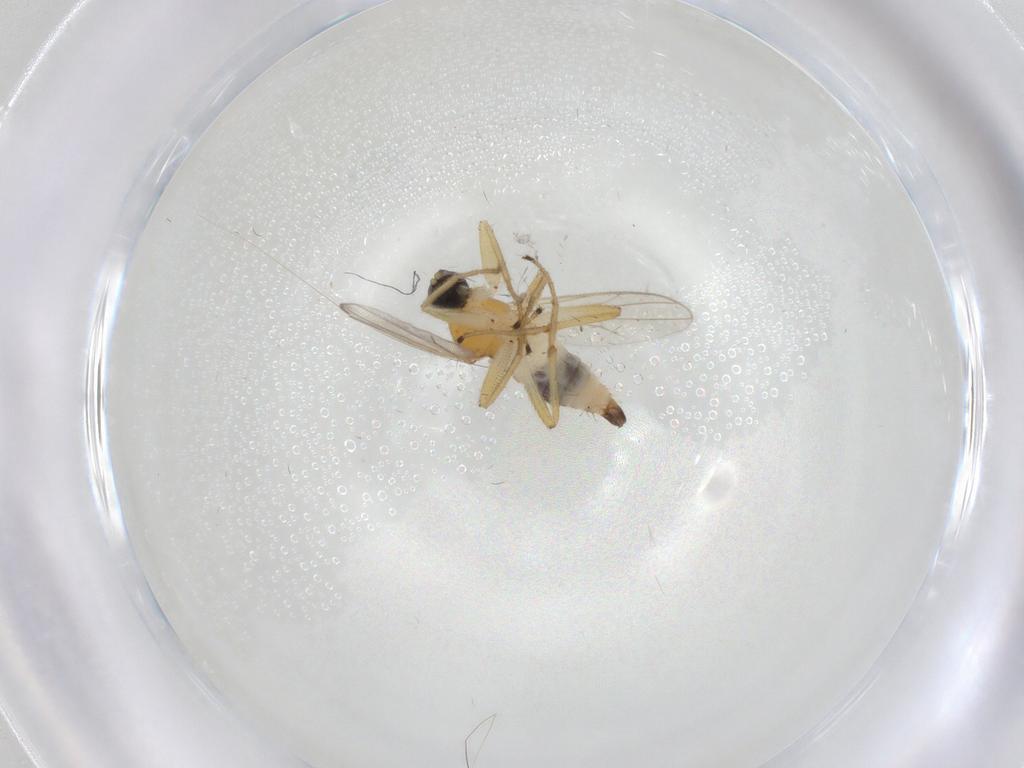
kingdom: Animalia
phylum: Arthropoda
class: Insecta
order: Diptera
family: Hybotidae
